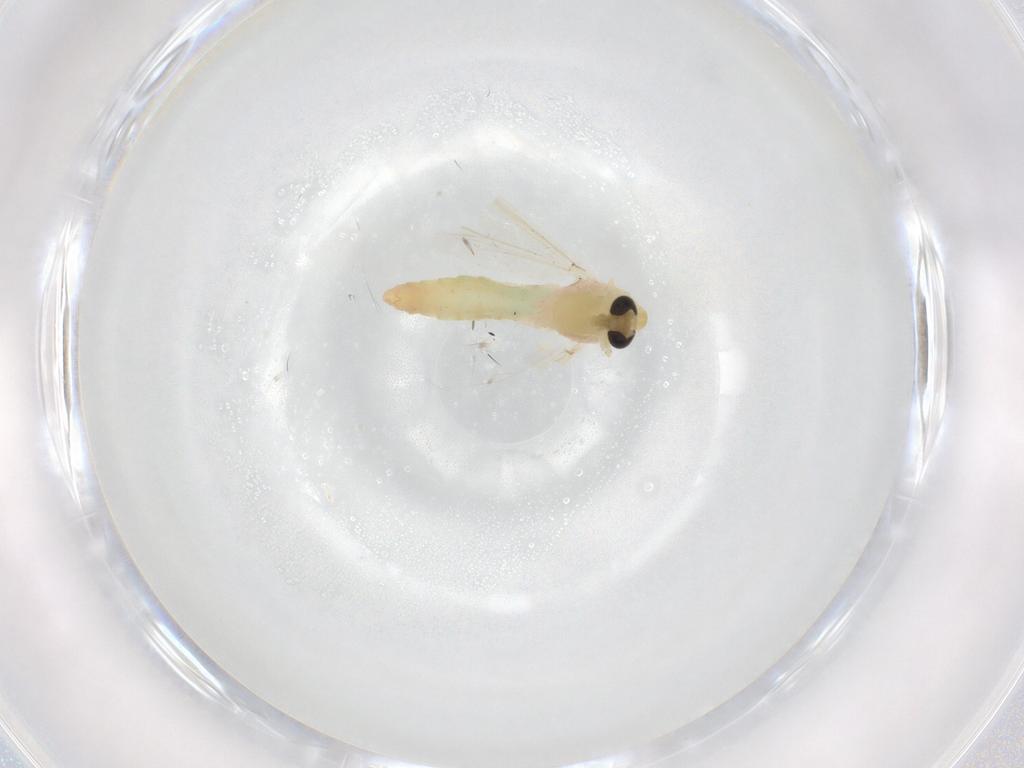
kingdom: Animalia
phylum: Arthropoda
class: Insecta
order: Diptera
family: Chironomidae
